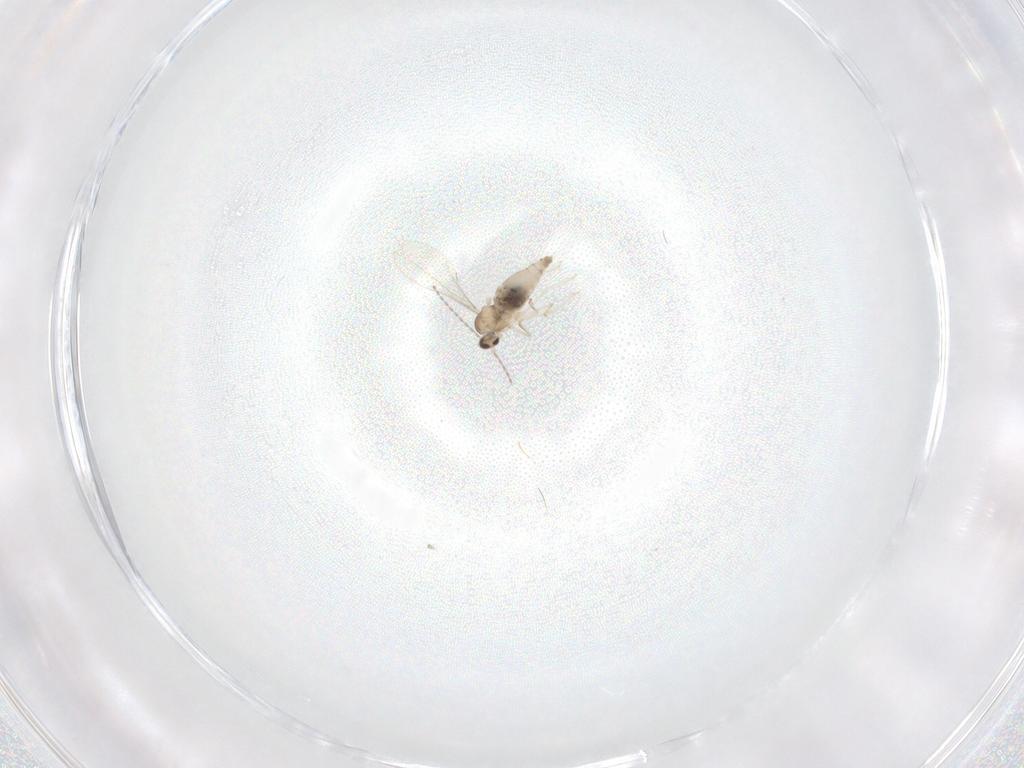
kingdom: Animalia
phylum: Arthropoda
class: Insecta
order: Diptera
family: Cecidomyiidae
